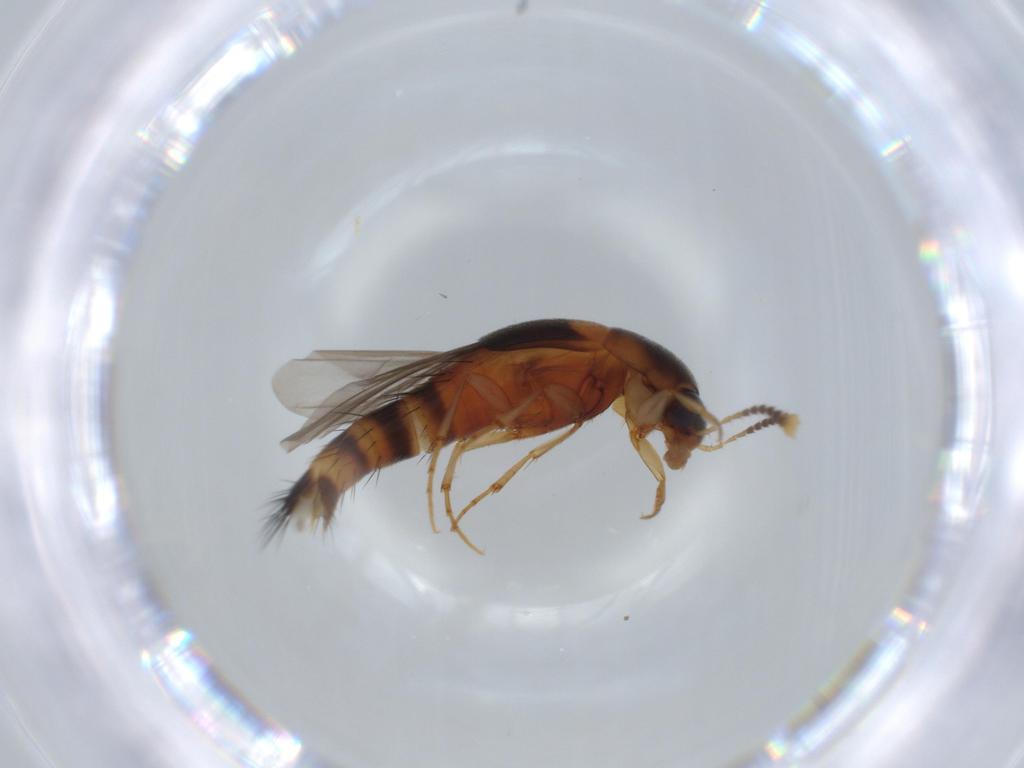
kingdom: Animalia
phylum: Arthropoda
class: Insecta
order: Coleoptera
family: Staphylinidae
